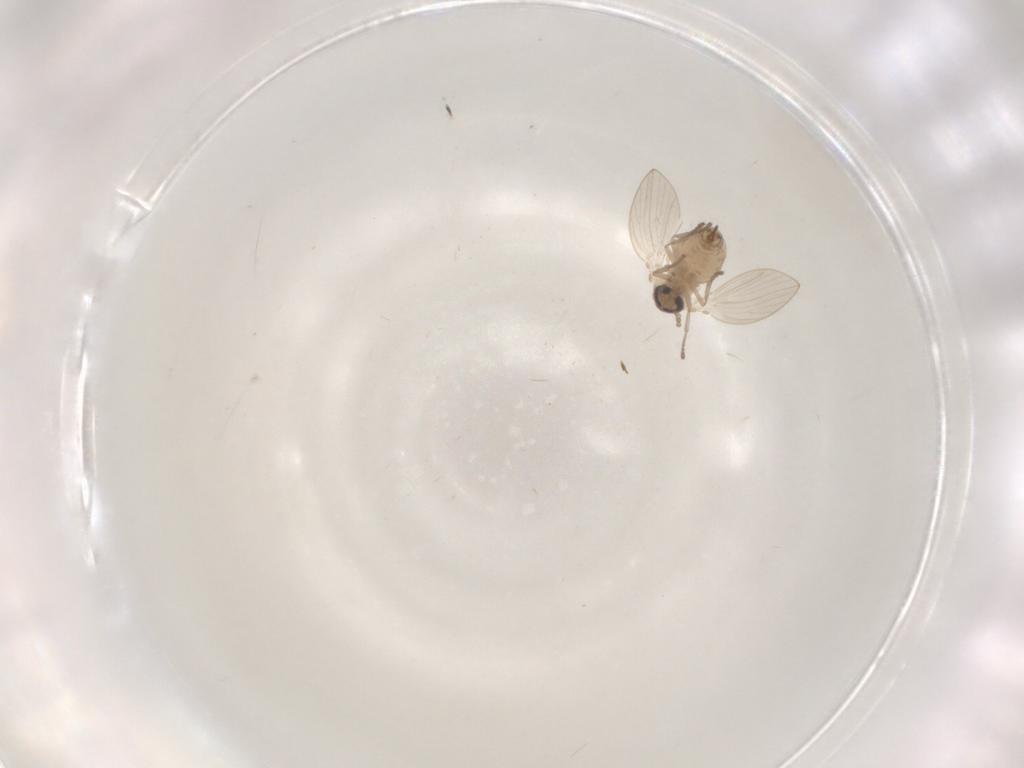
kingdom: Animalia
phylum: Arthropoda
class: Insecta
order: Diptera
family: Psychodidae
